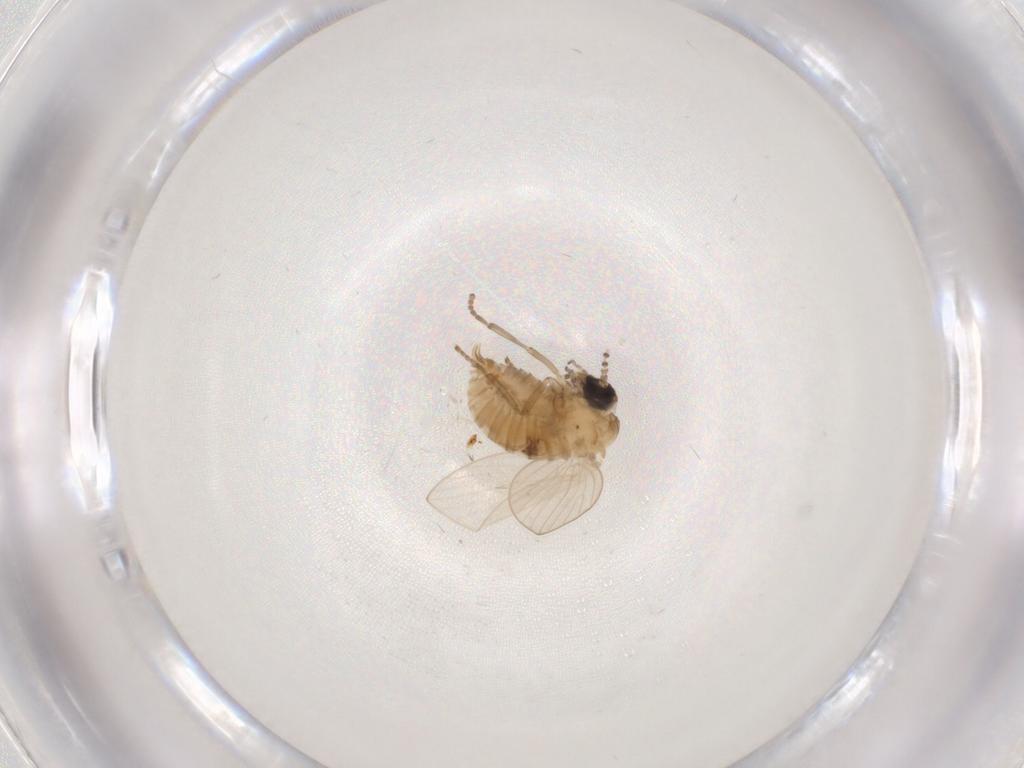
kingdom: Animalia
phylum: Arthropoda
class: Insecta
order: Diptera
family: Psychodidae
